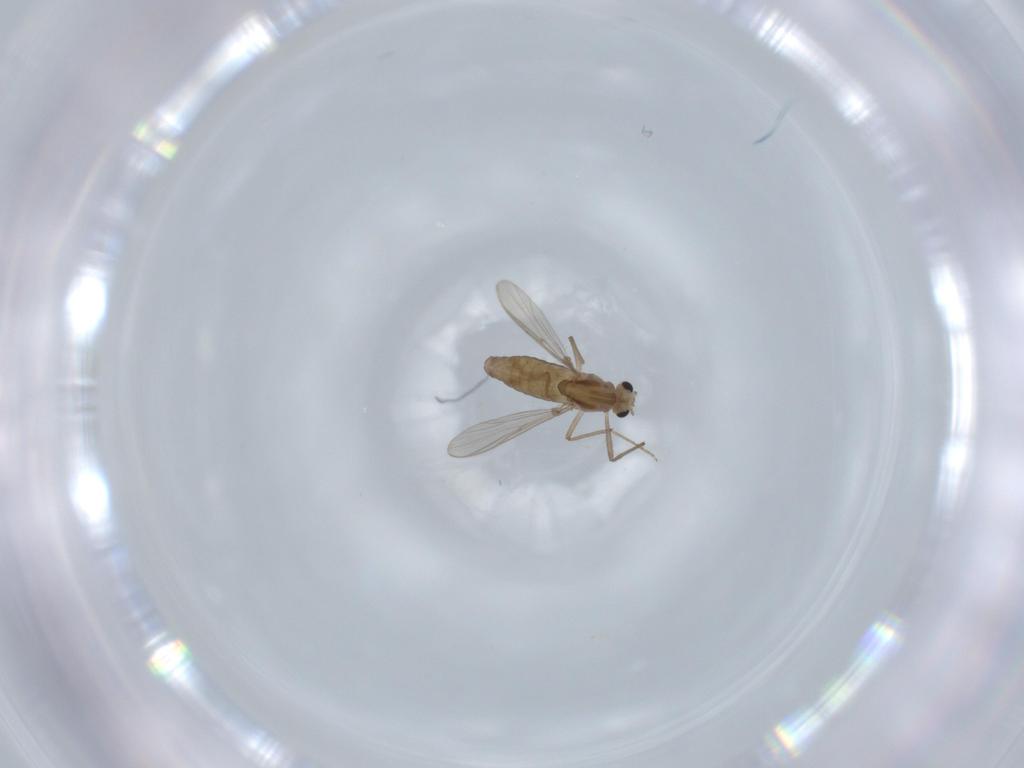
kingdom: Animalia
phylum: Arthropoda
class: Insecta
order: Diptera
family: Chironomidae
